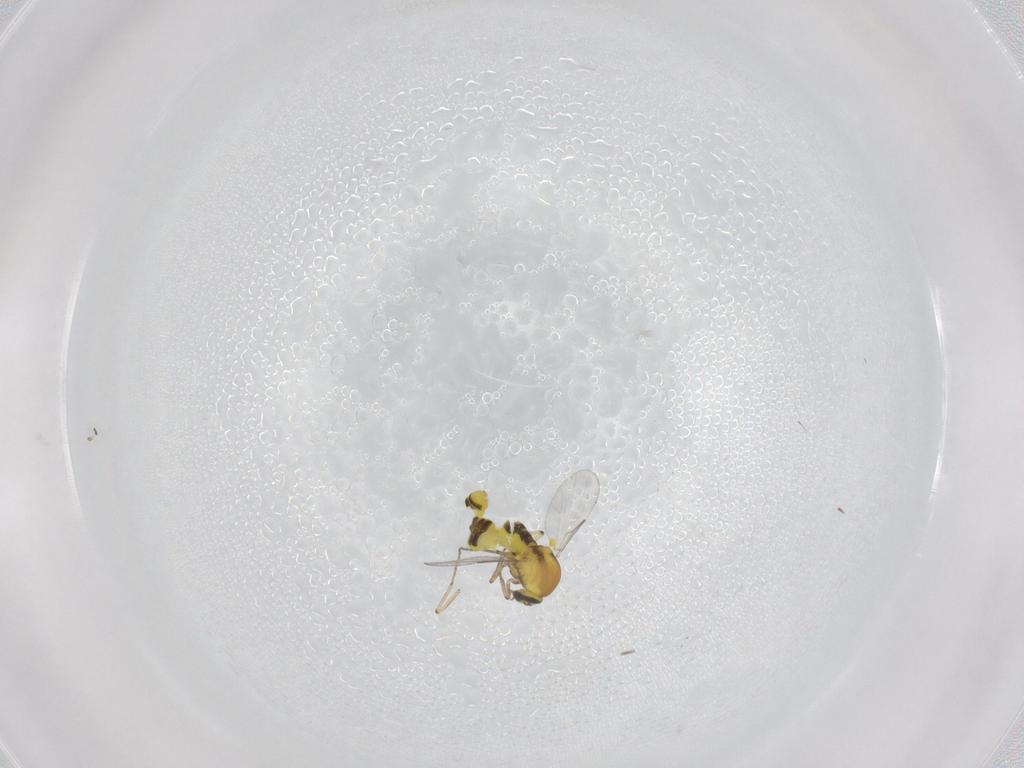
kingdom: Animalia
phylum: Arthropoda
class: Insecta
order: Diptera
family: Ceratopogonidae
